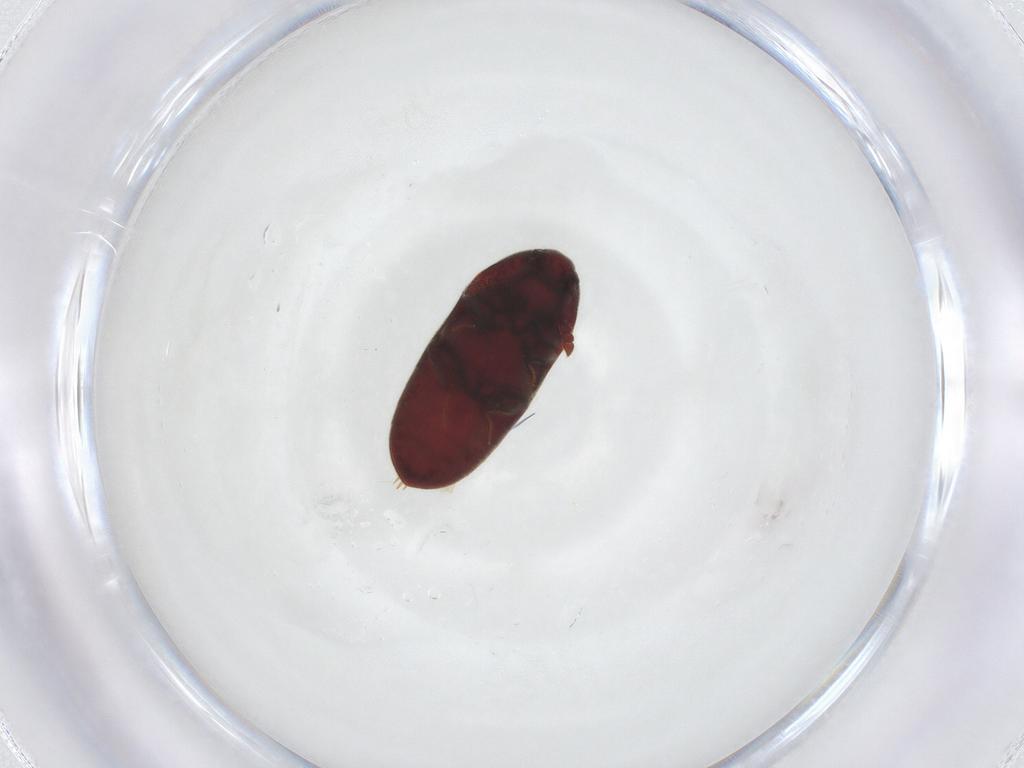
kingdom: Animalia
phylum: Arthropoda
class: Insecta
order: Coleoptera
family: Throscidae
